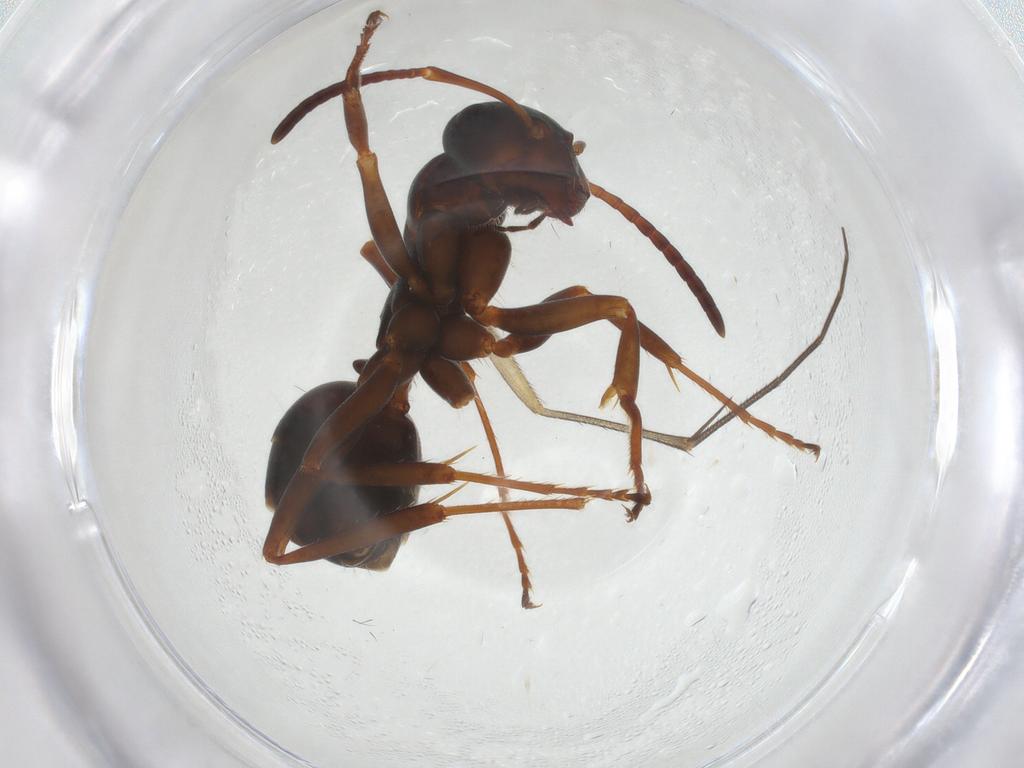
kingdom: Animalia
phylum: Arthropoda
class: Insecta
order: Hymenoptera
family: Formicidae
